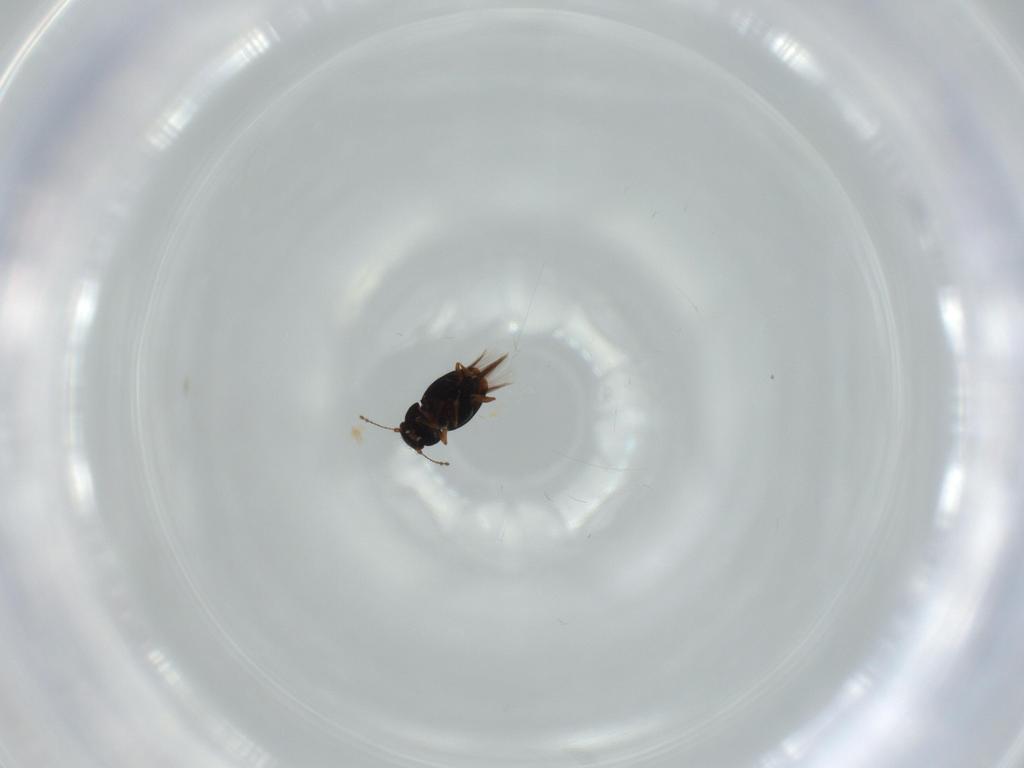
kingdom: Animalia
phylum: Arthropoda
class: Insecta
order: Coleoptera
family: Ptiliidae
